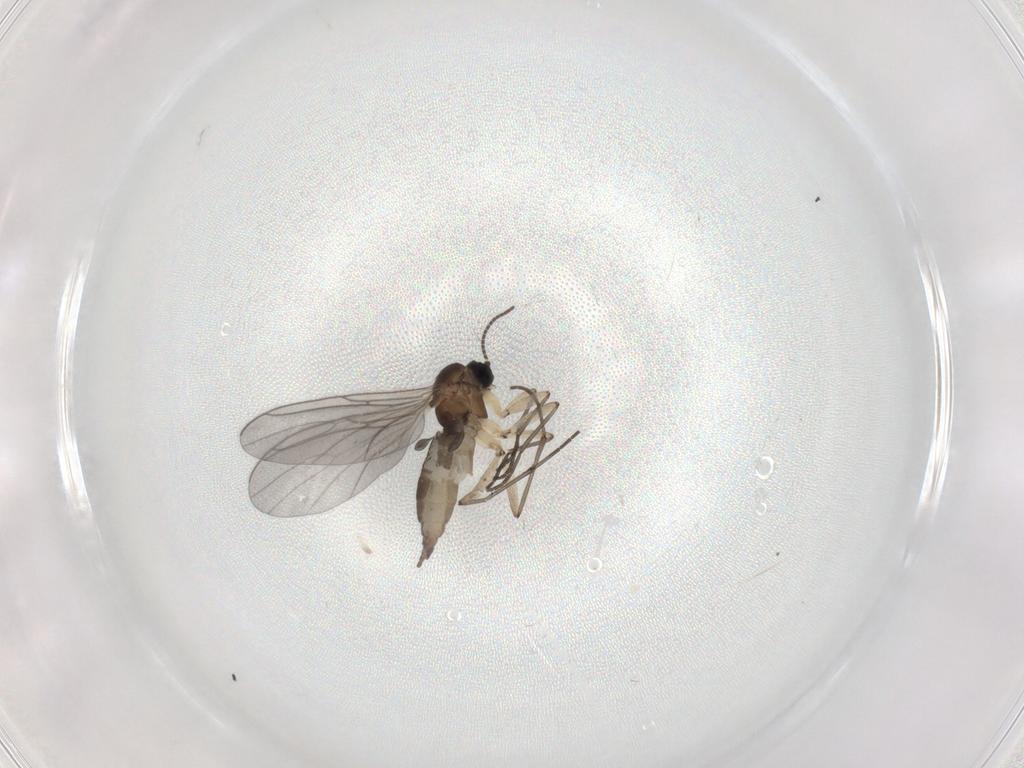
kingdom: Animalia
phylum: Arthropoda
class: Insecta
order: Diptera
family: Sciaridae
